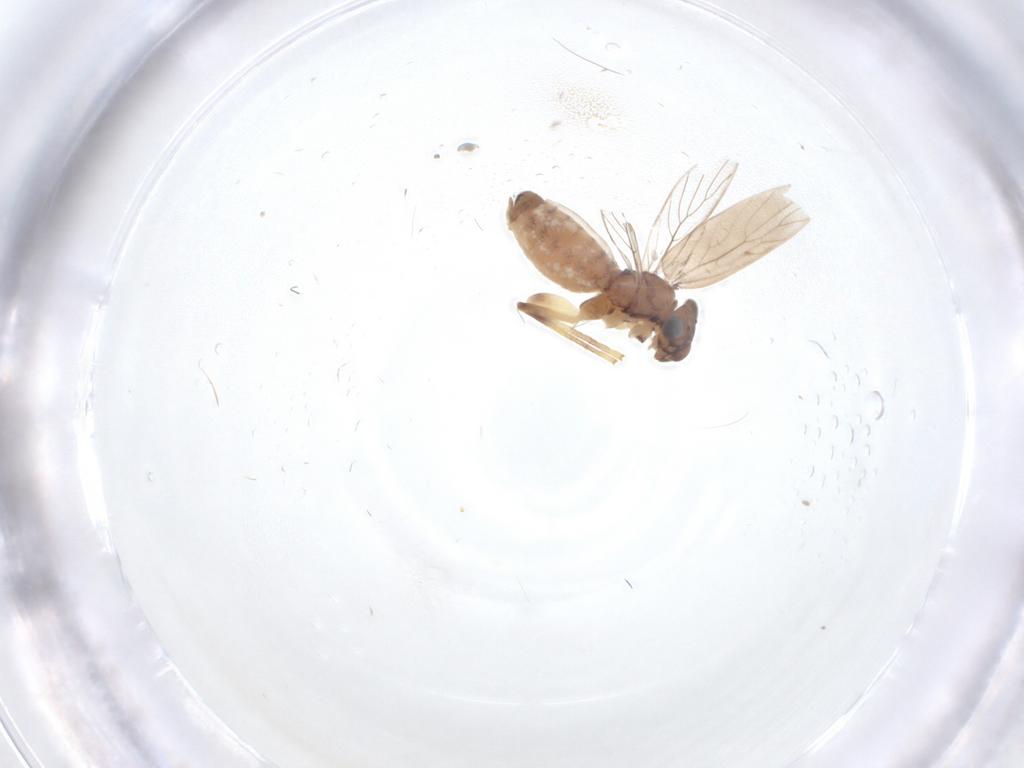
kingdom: Animalia
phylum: Arthropoda
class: Insecta
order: Psocodea
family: Lepidopsocidae
